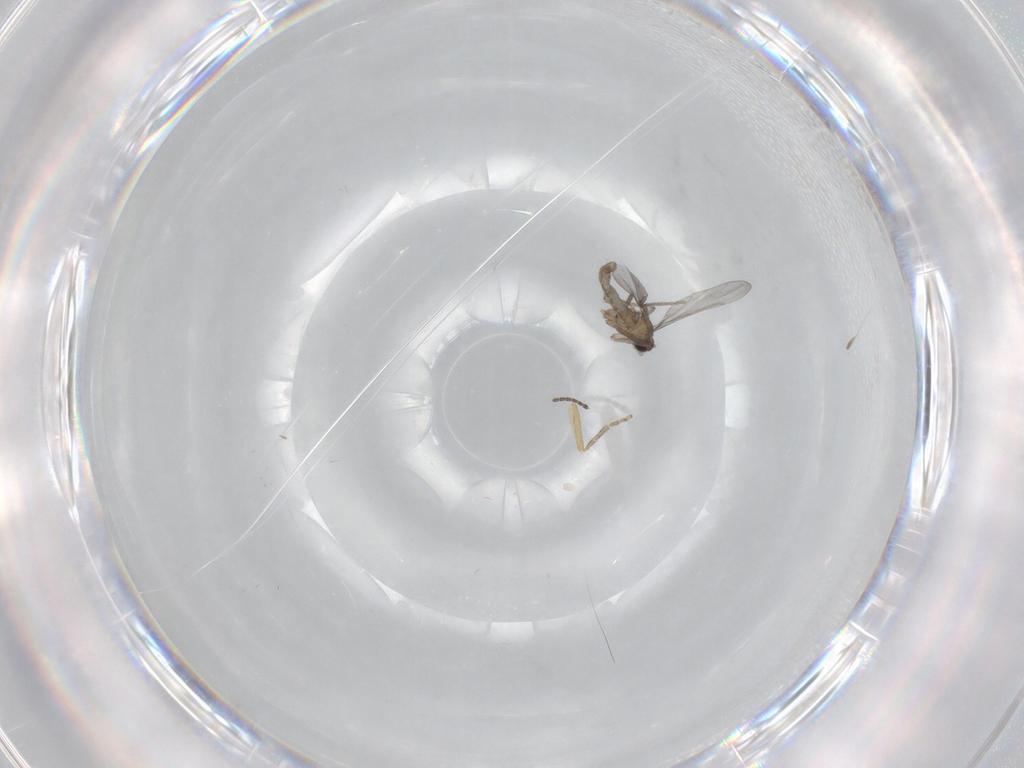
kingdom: Animalia
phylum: Arthropoda
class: Insecta
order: Diptera
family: Ceratopogonidae
